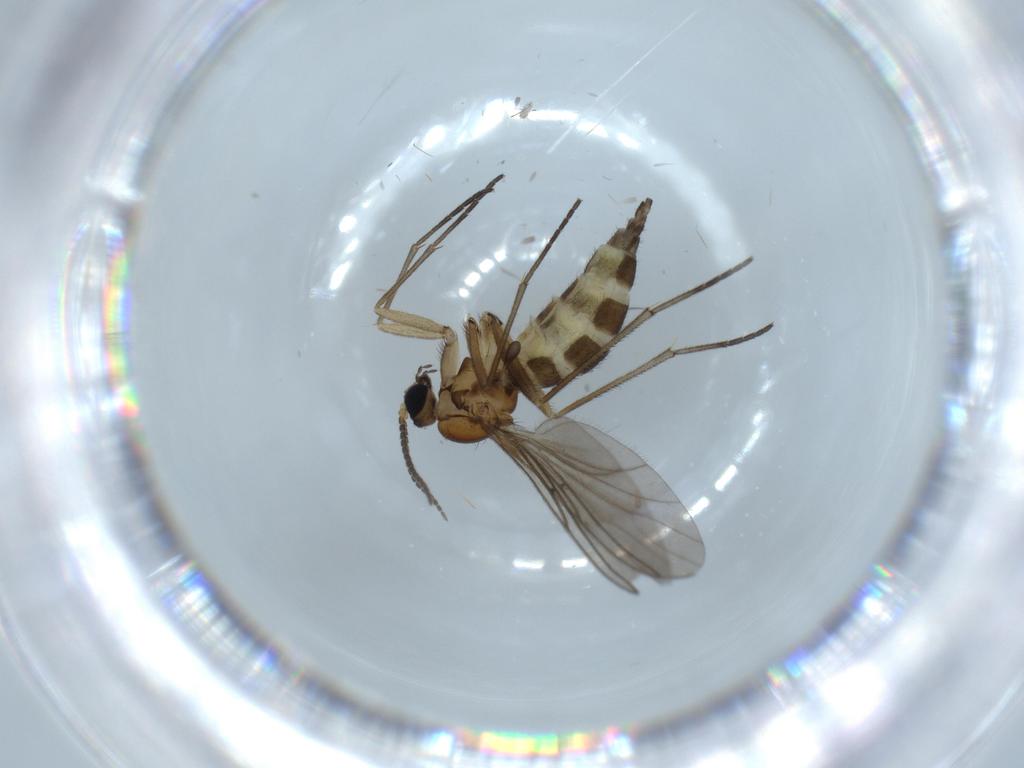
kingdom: Animalia
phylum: Arthropoda
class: Insecta
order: Diptera
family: Sciaridae
